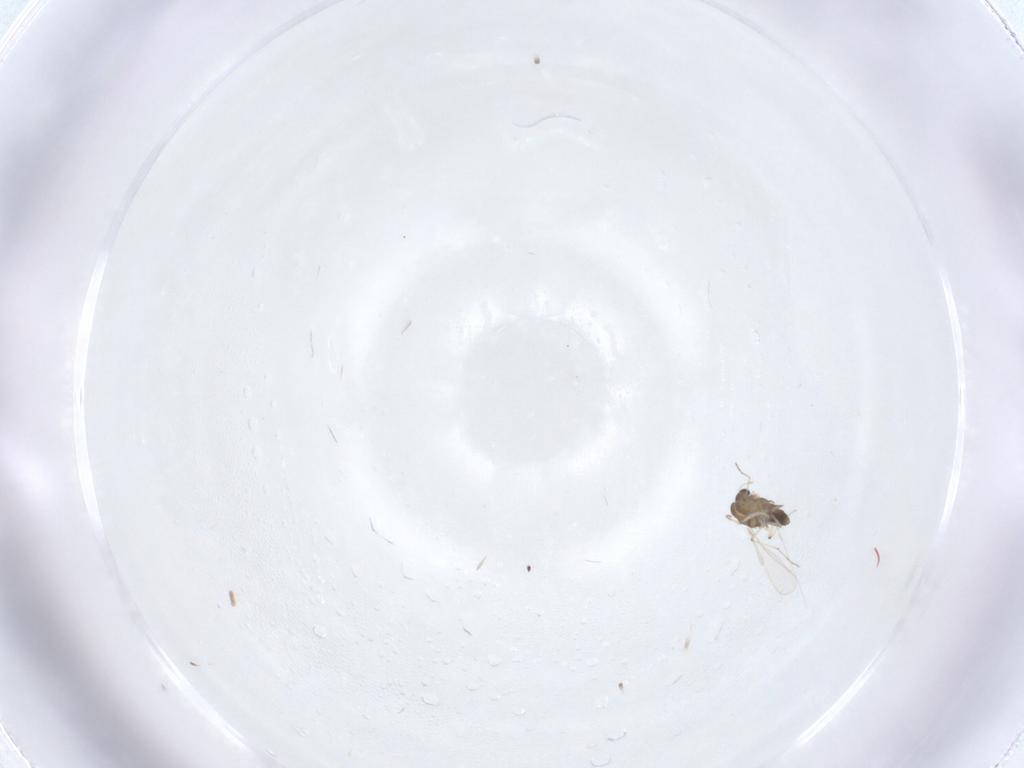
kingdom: Animalia
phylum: Arthropoda
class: Insecta
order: Diptera
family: Chironomidae
